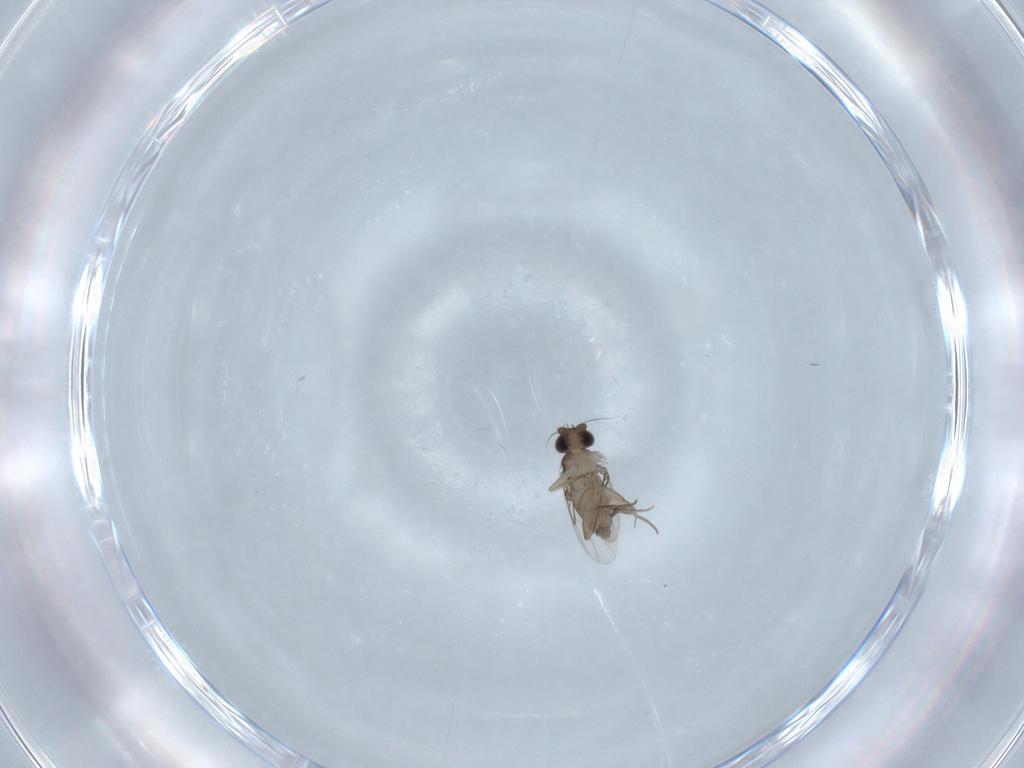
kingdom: Animalia
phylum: Arthropoda
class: Insecta
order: Diptera
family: Phoridae
